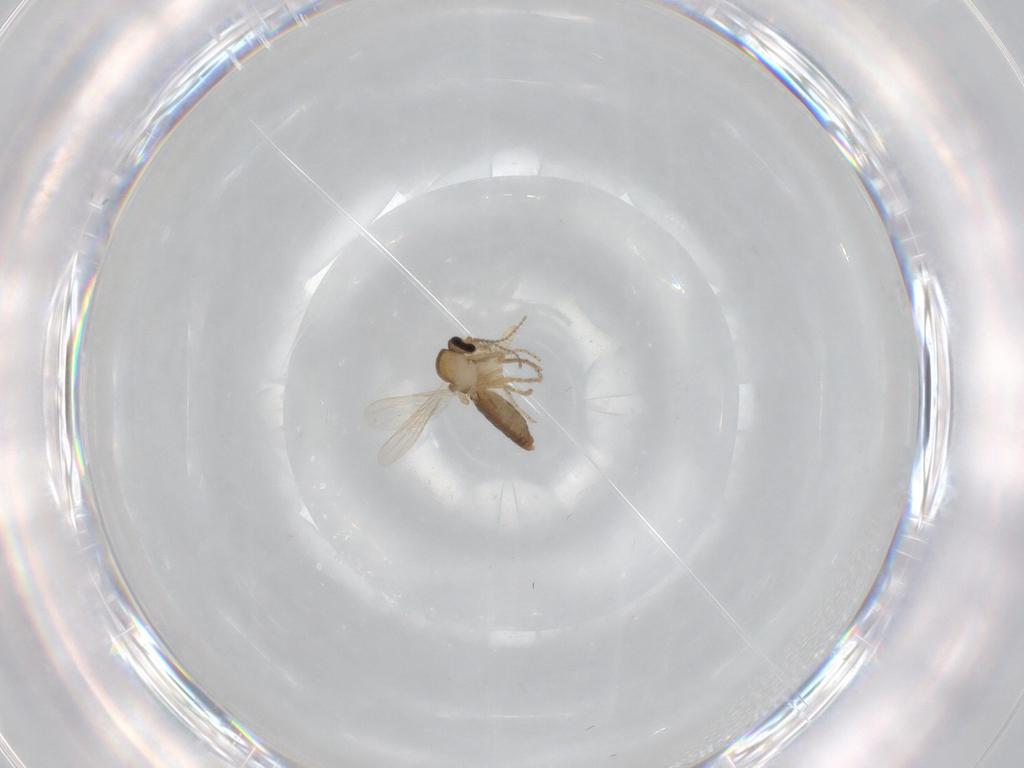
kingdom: Animalia
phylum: Arthropoda
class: Insecta
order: Diptera
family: Ceratopogonidae
